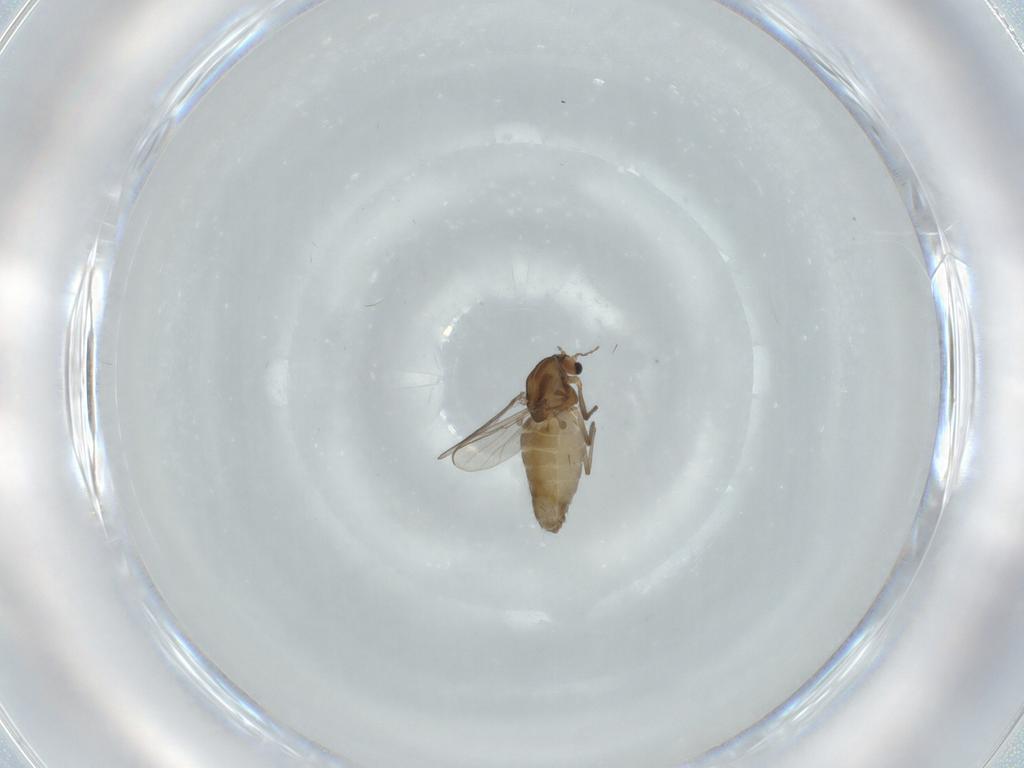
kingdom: Animalia
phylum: Arthropoda
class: Insecta
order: Diptera
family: Chironomidae
